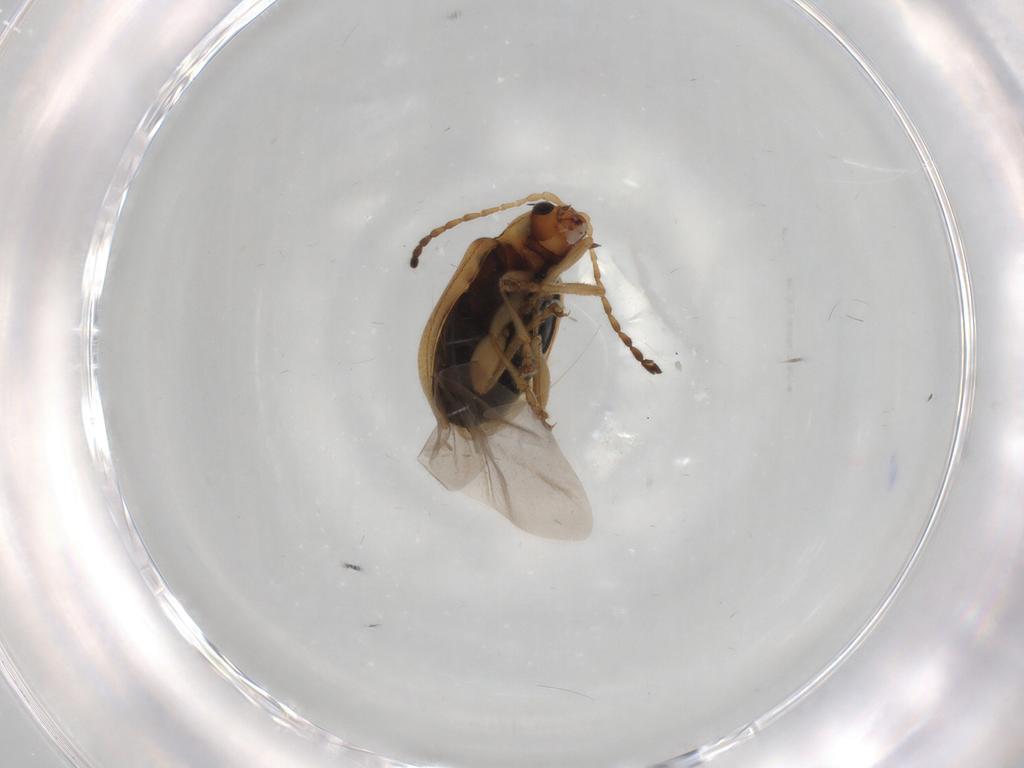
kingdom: Animalia
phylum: Arthropoda
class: Insecta
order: Coleoptera
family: Chrysomelidae
